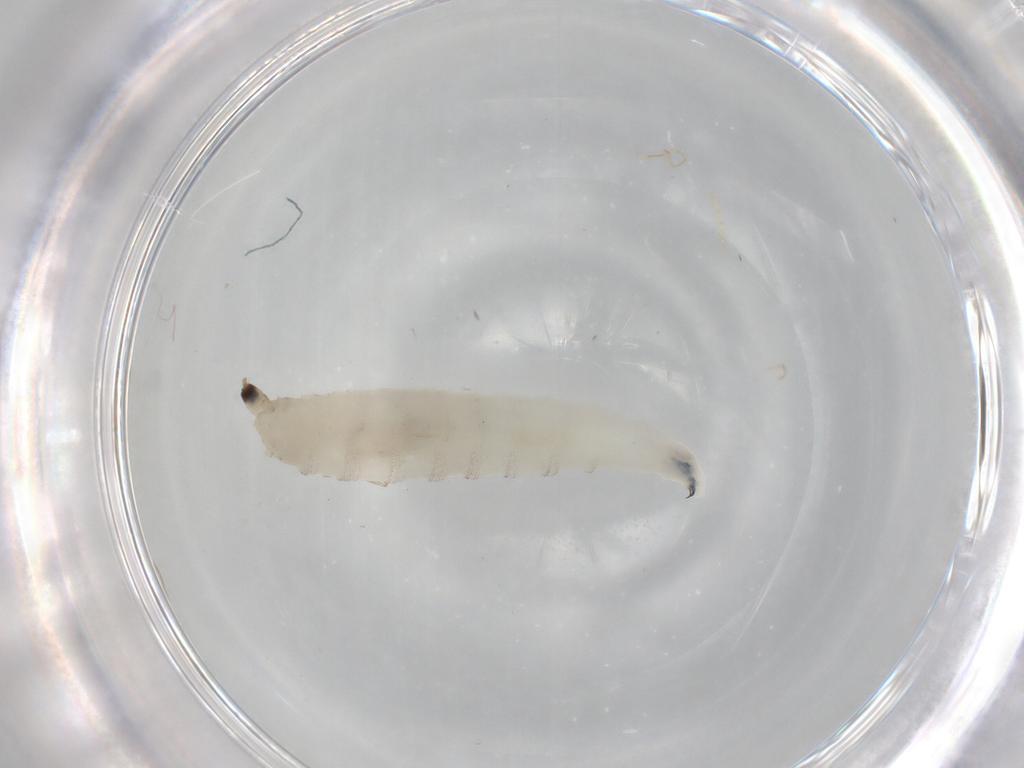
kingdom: Animalia
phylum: Arthropoda
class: Insecta
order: Diptera
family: Drosophilidae
